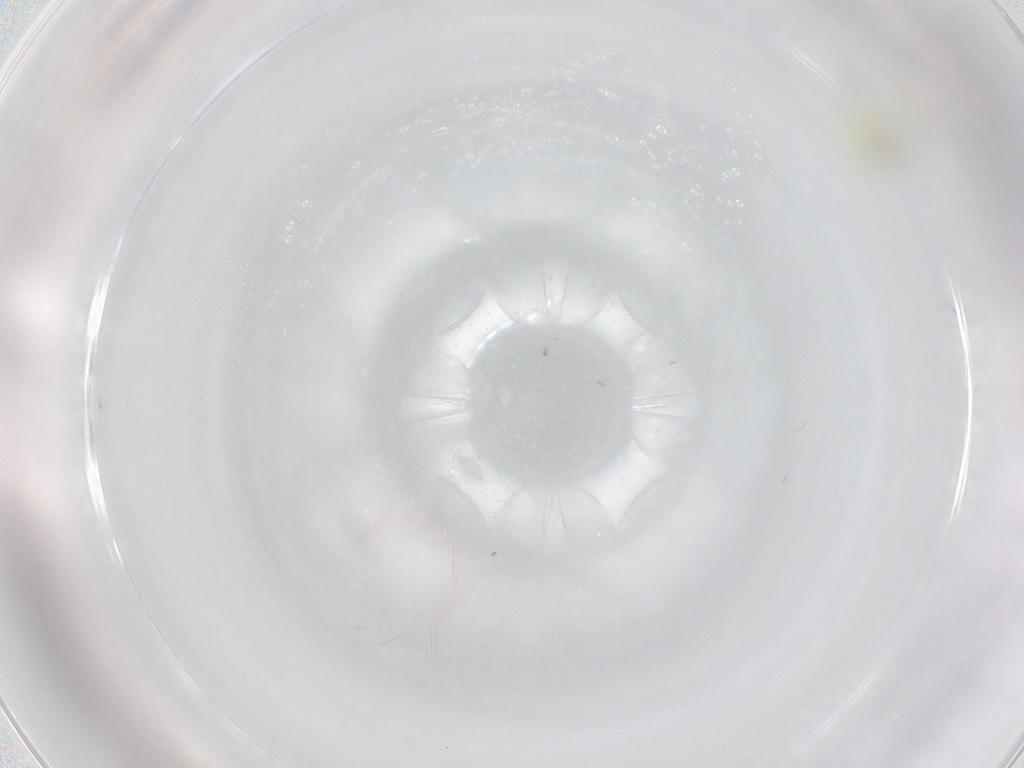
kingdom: Animalia
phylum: Arthropoda
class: Insecta
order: Hemiptera
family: Aleyrodidae
